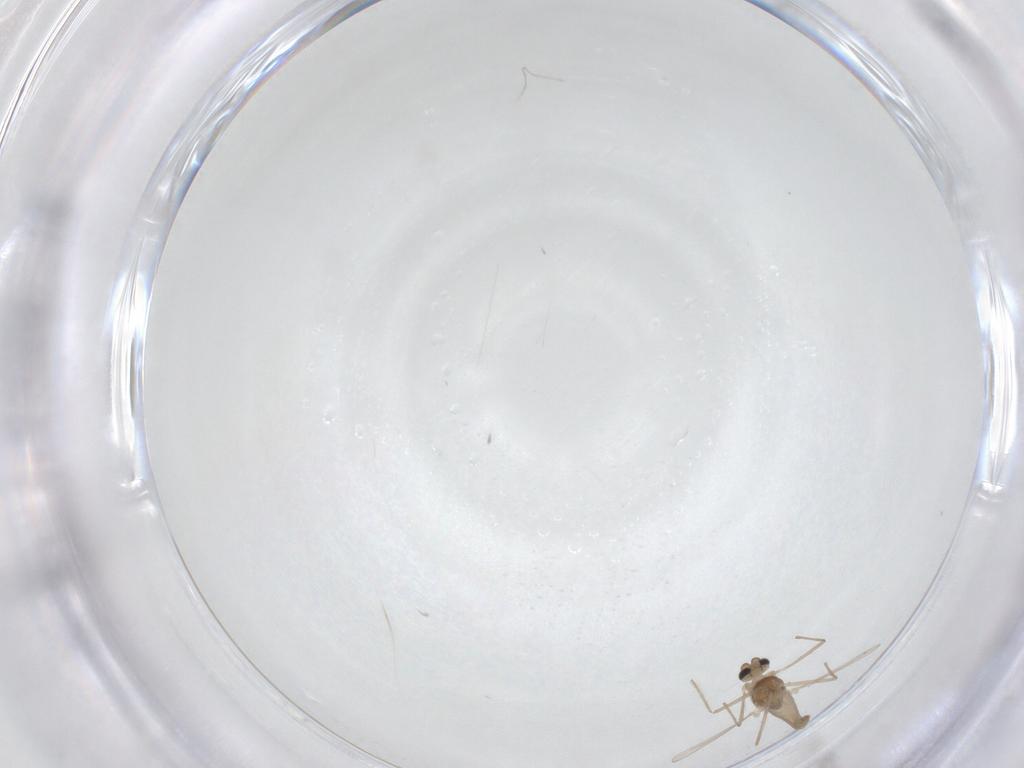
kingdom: Animalia
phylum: Arthropoda
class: Insecta
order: Diptera
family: Chironomidae
